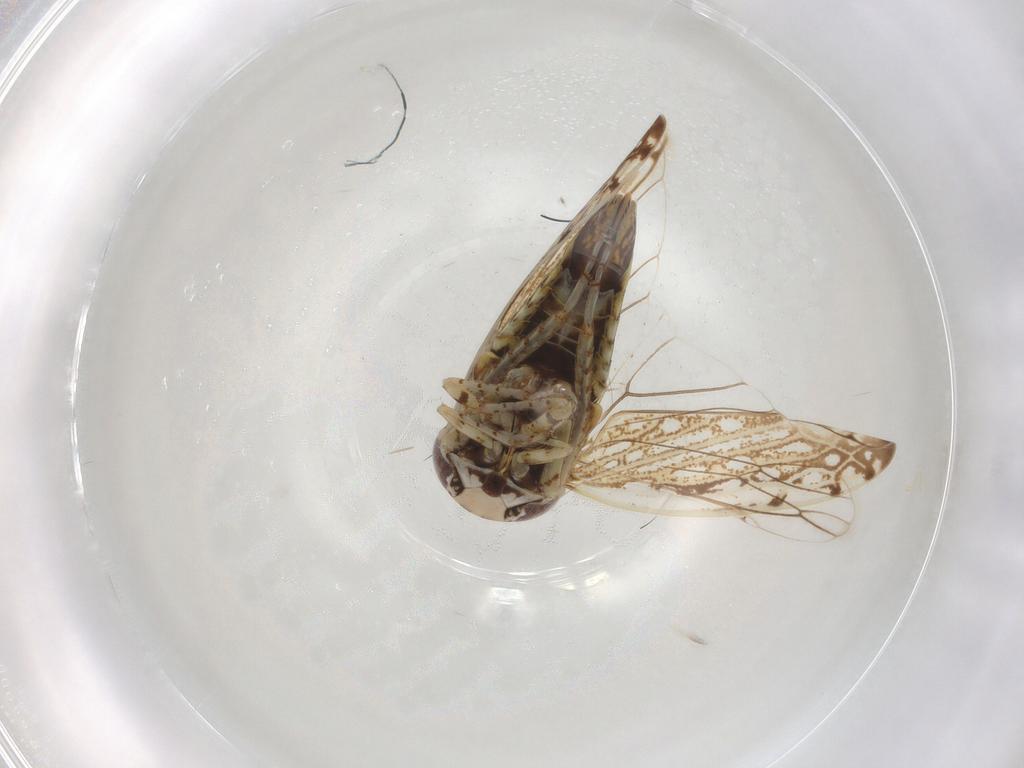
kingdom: Animalia
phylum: Arthropoda
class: Insecta
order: Hemiptera
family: Cicadellidae
